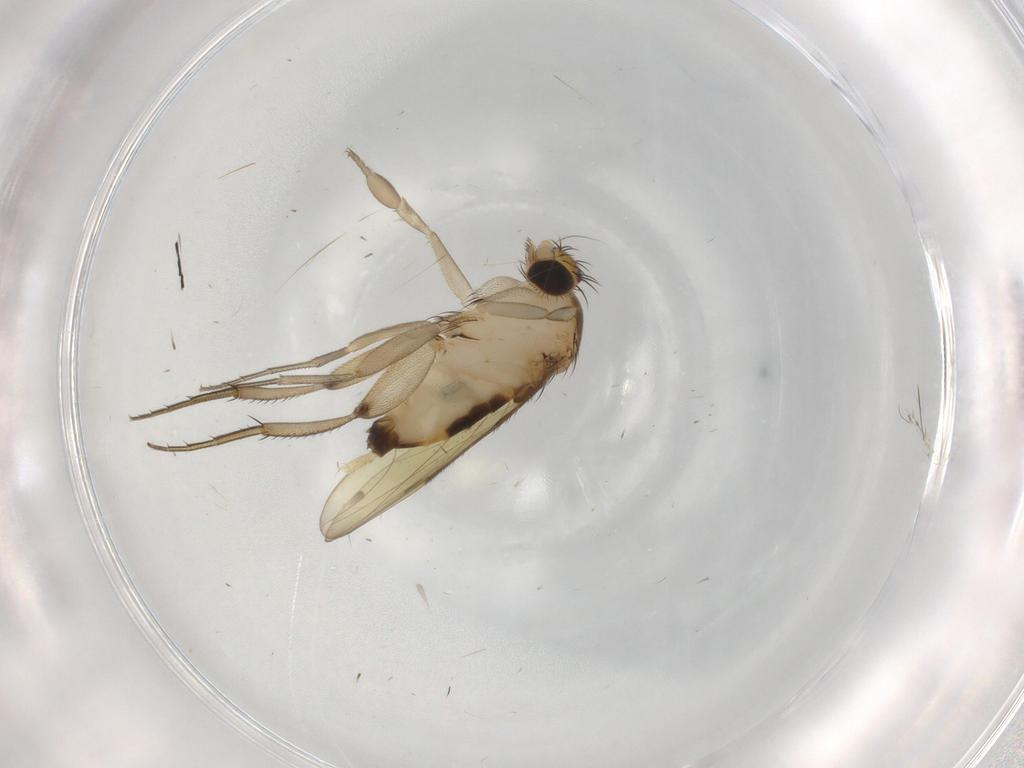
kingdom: Animalia
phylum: Arthropoda
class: Insecta
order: Diptera
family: Phoridae
